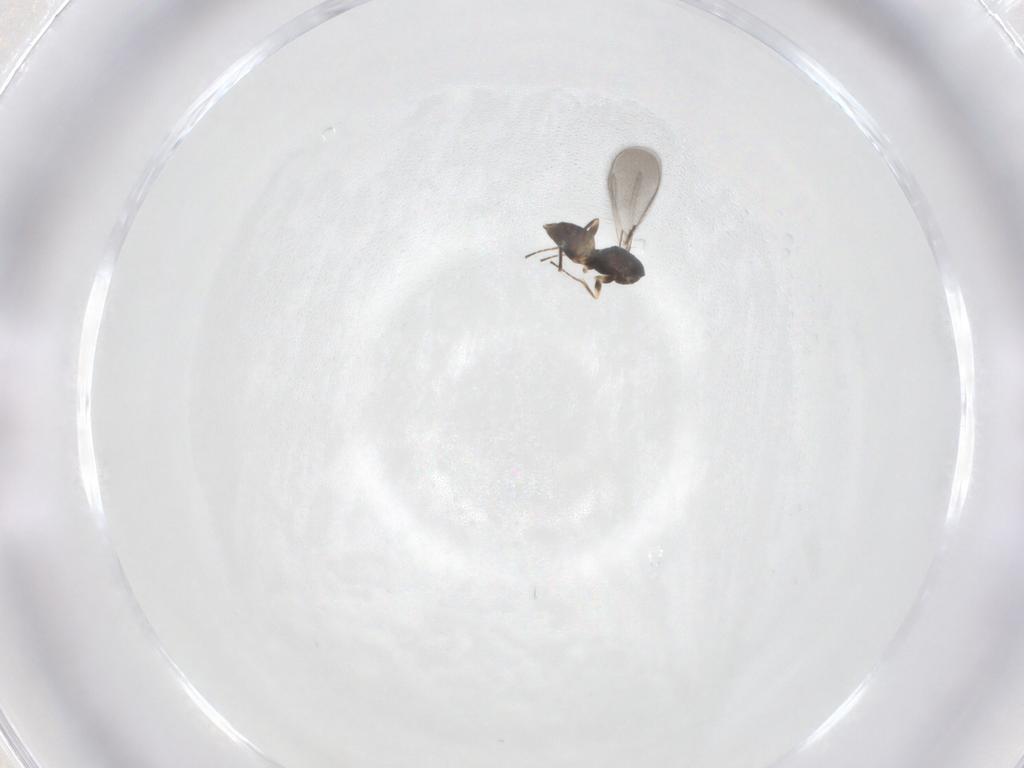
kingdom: Animalia
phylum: Arthropoda
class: Insecta
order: Hymenoptera
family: Mymaridae
